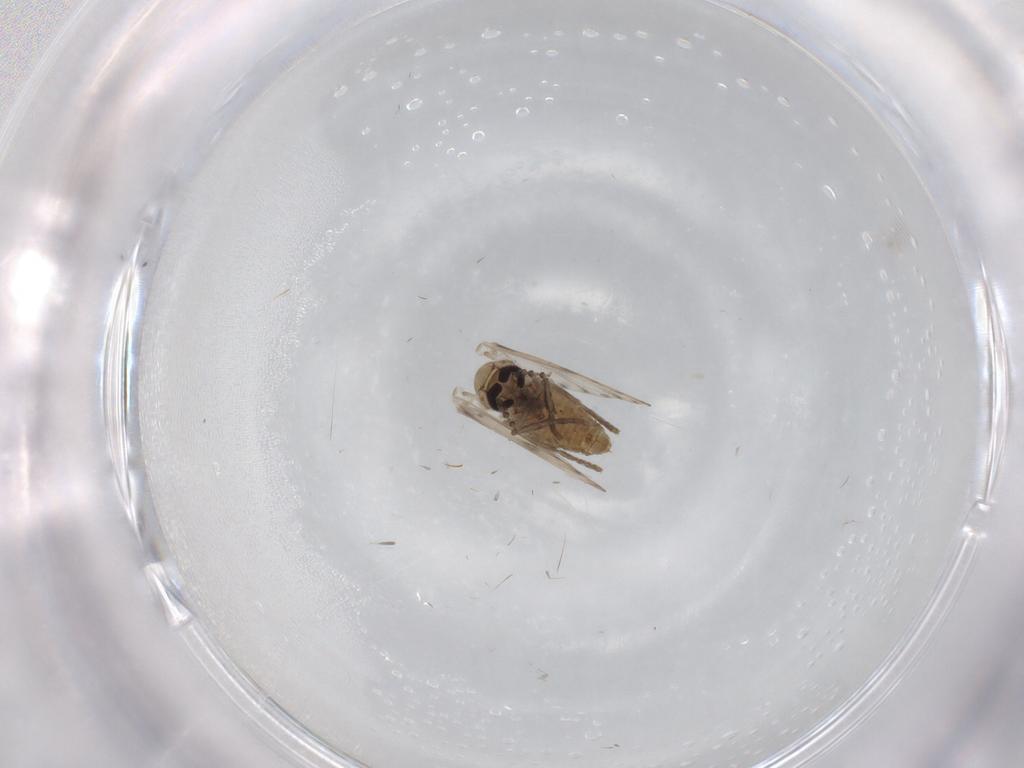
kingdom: Animalia
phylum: Arthropoda
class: Insecta
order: Diptera
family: Psychodidae
